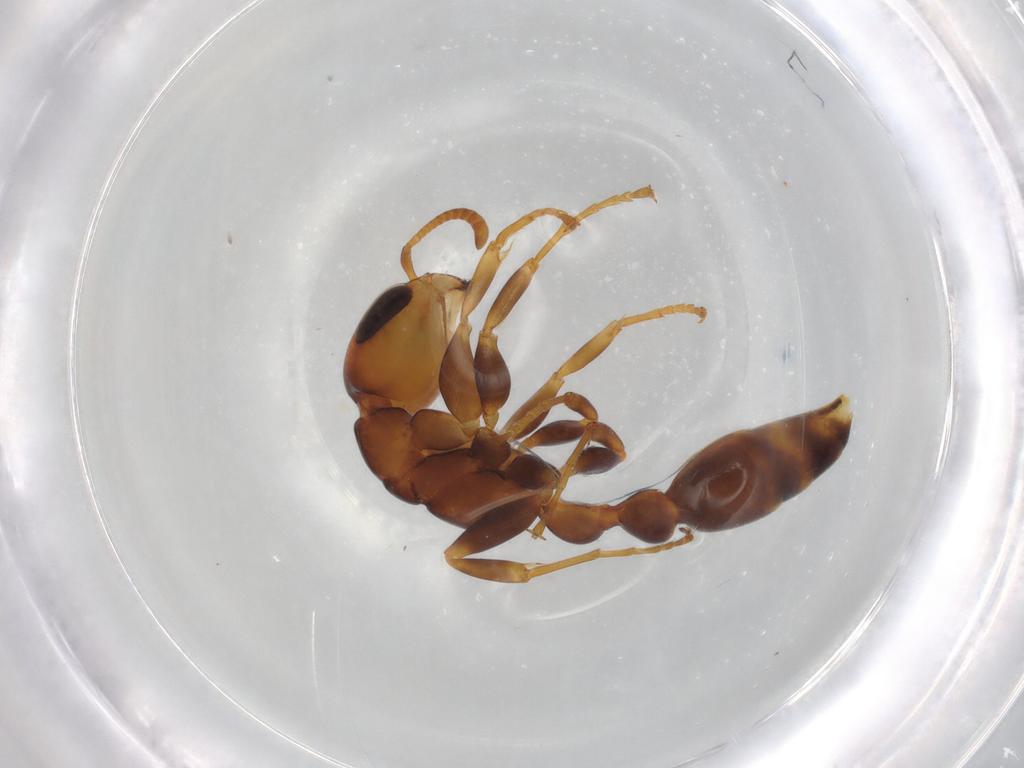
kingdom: Animalia
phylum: Arthropoda
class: Insecta
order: Hymenoptera
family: Formicidae
